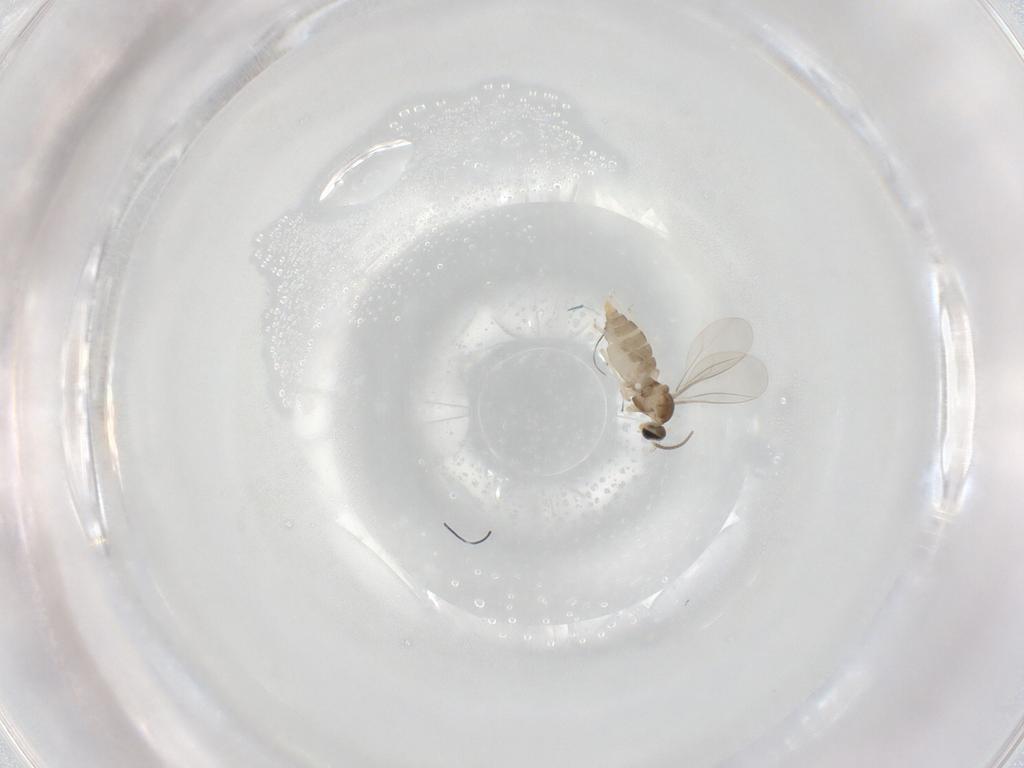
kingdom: Animalia
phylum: Arthropoda
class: Insecta
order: Diptera
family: Cecidomyiidae
